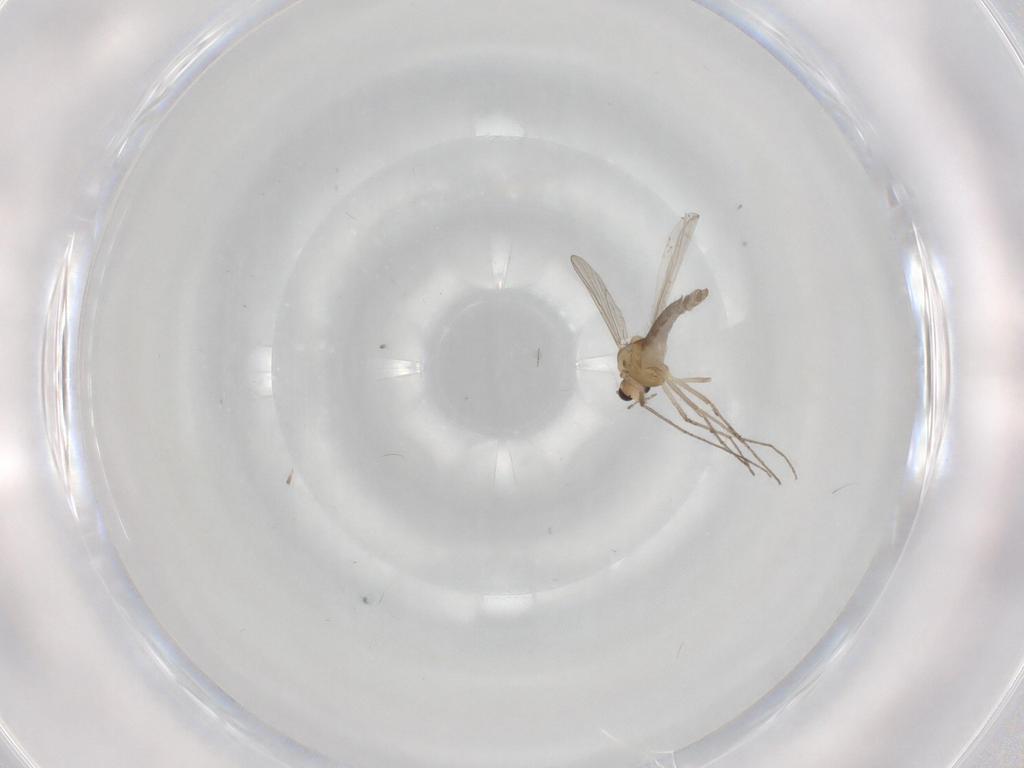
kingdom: Animalia
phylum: Arthropoda
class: Insecta
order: Diptera
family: Chironomidae
